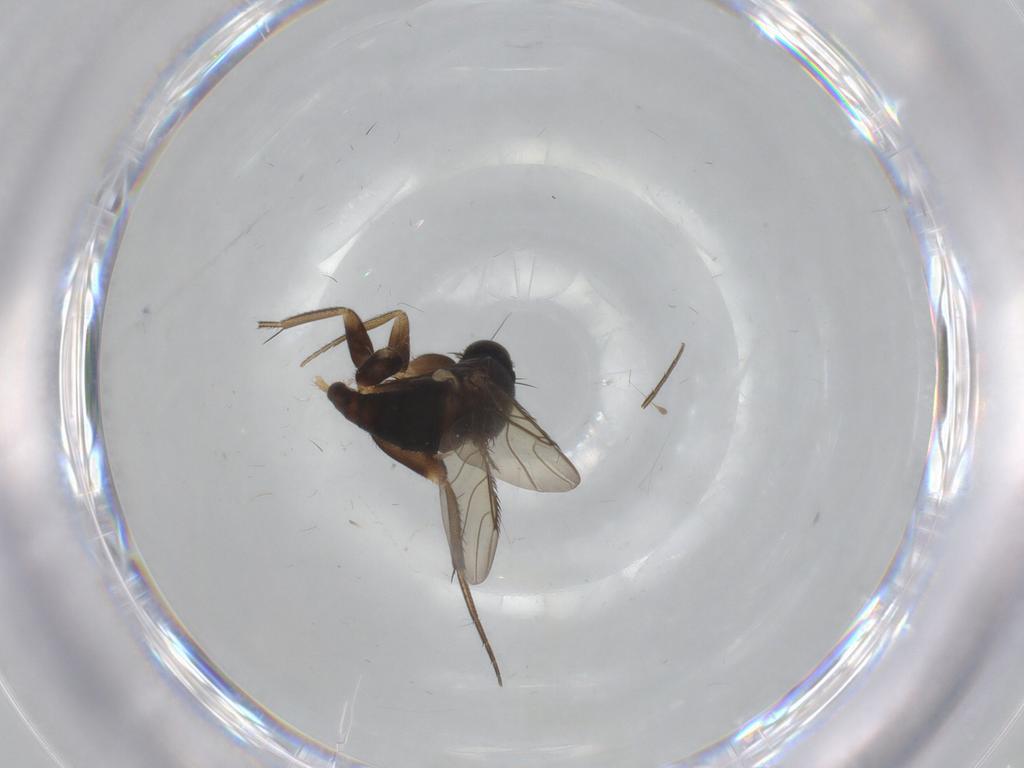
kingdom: Animalia
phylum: Arthropoda
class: Insecta
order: Diptera
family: Phoridae
